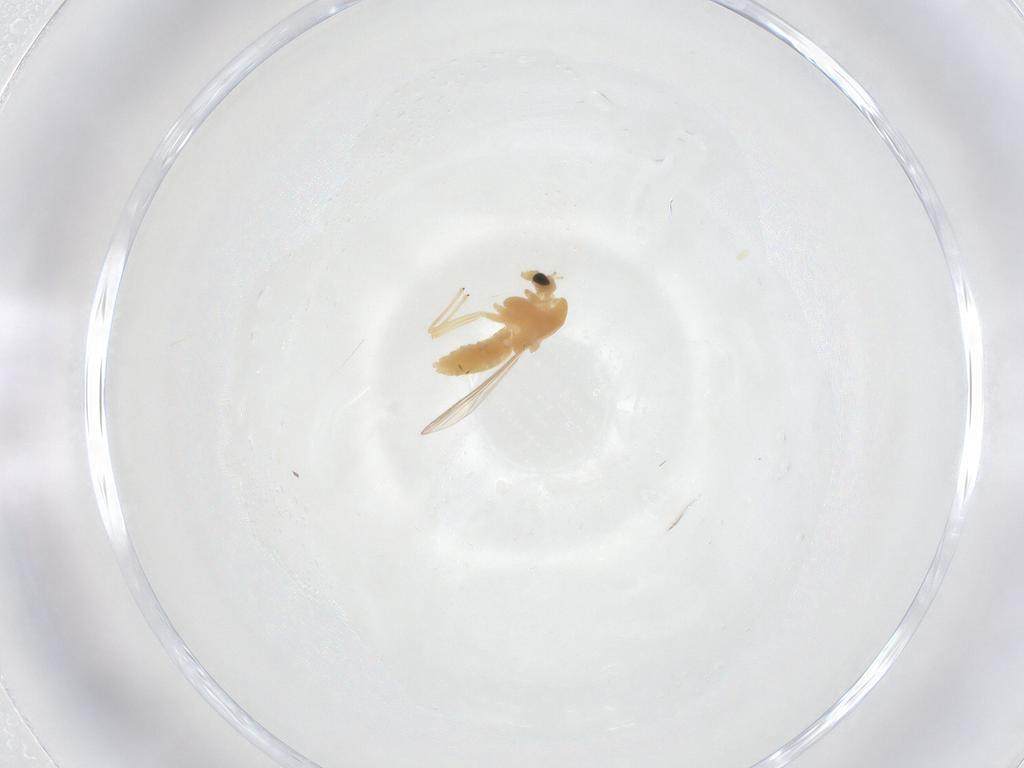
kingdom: Animalia
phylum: Arthropoda
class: Insecta
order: Diptera
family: Chironomidae
